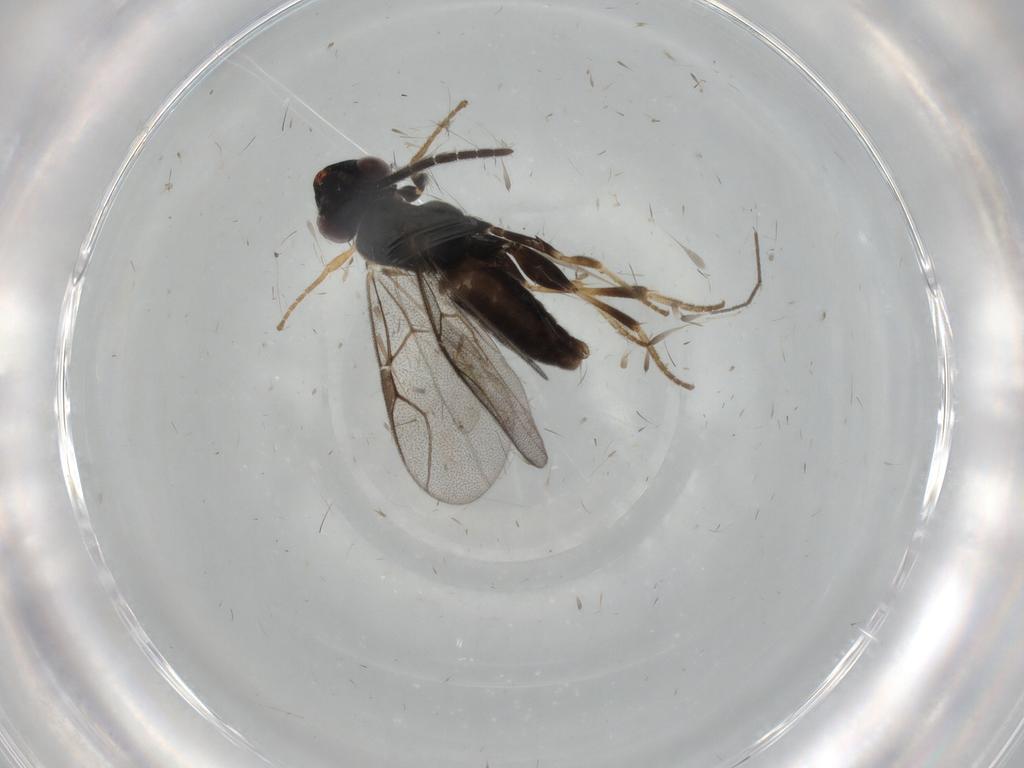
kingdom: Animalia
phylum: Arthropoda
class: Insecta
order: Hymenoptera
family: Dryinidae
